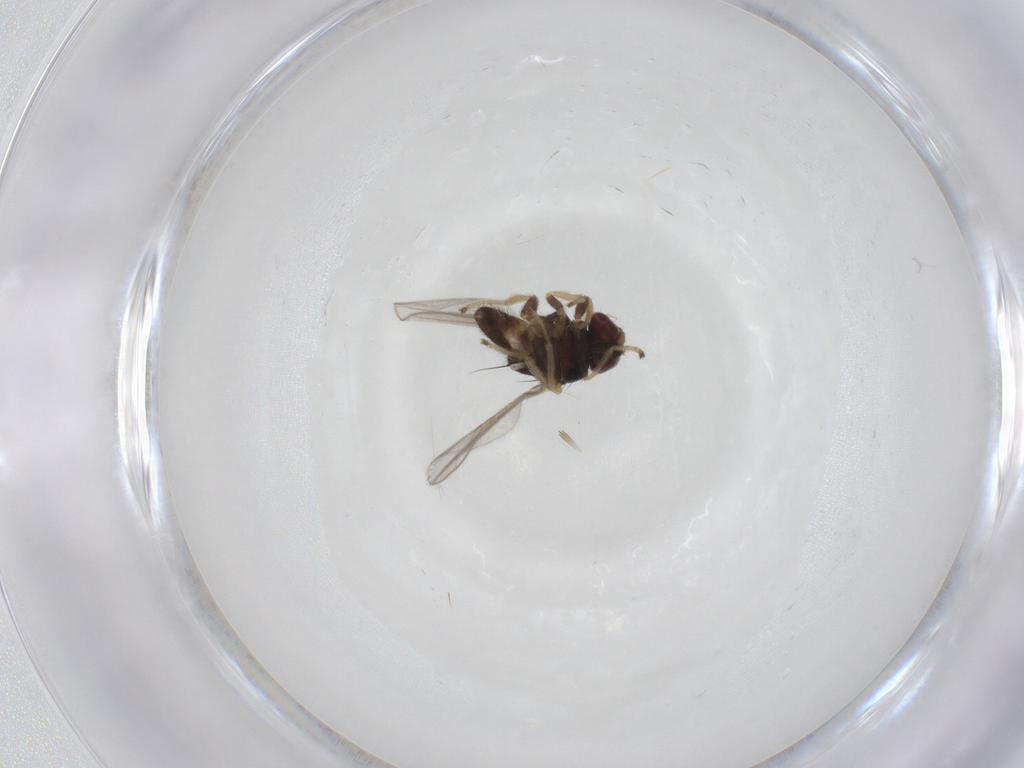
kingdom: Animalia
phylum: Arthropoda
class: Insecta
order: Diptera
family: Chloropidae
